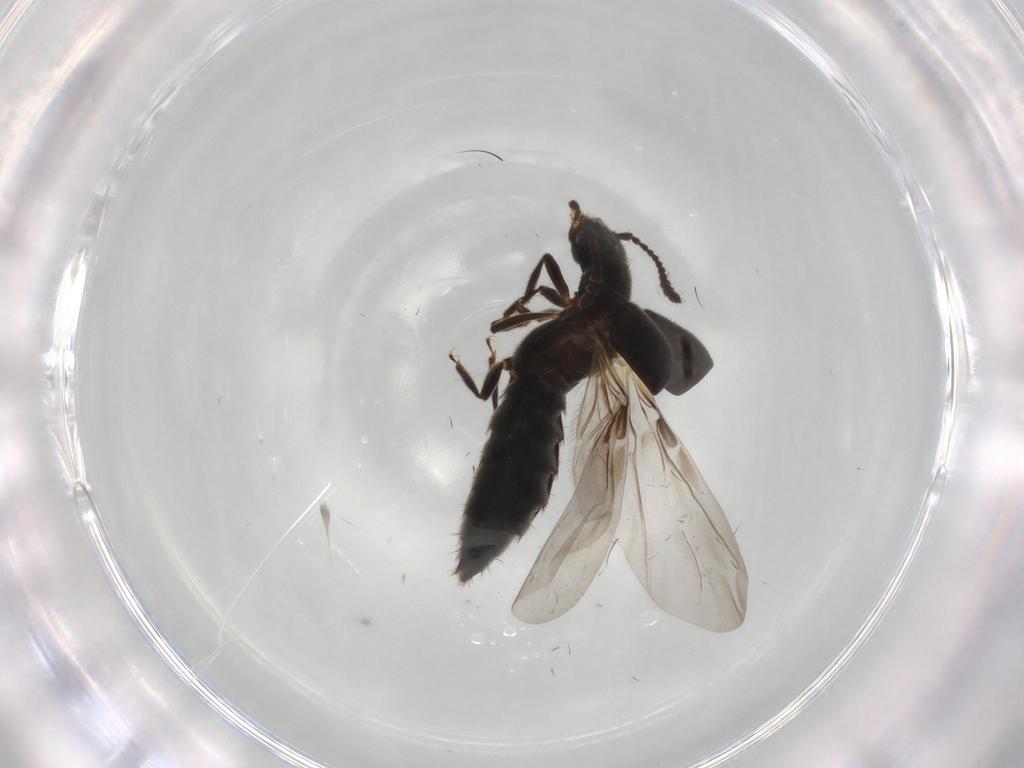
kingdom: Animalia
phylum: Arthropoda
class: Insecta
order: Coleoptera
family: Staphylinidae
